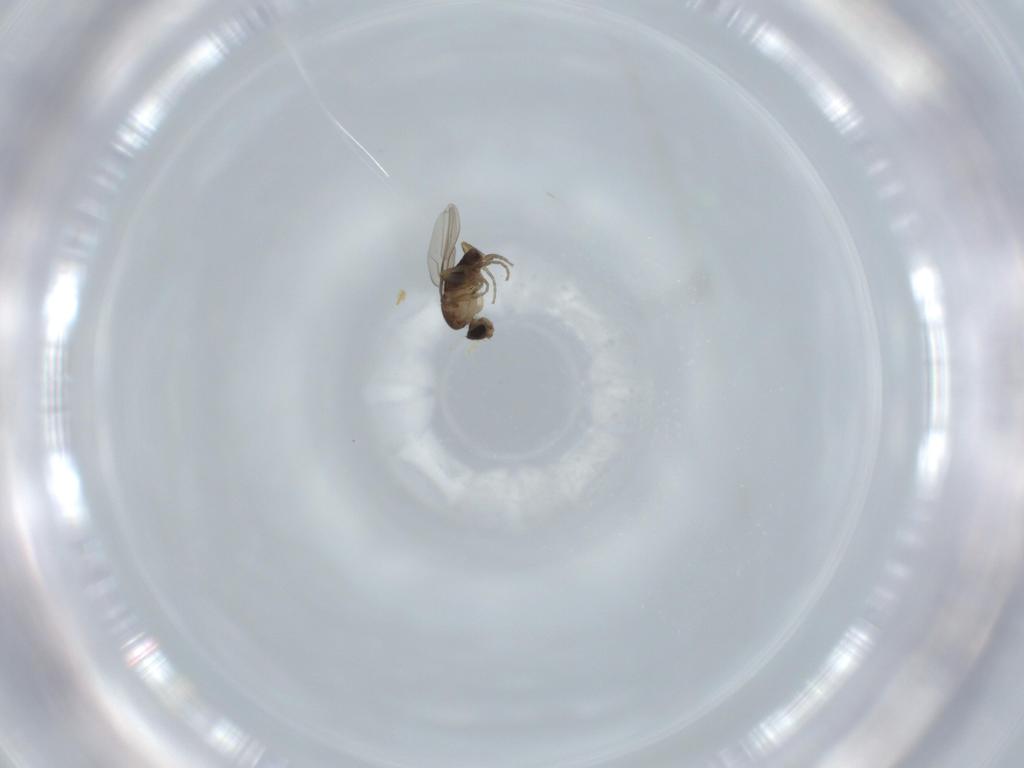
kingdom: Animalia
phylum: Arthropoda
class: Insecta
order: Diptera
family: Phoridae
